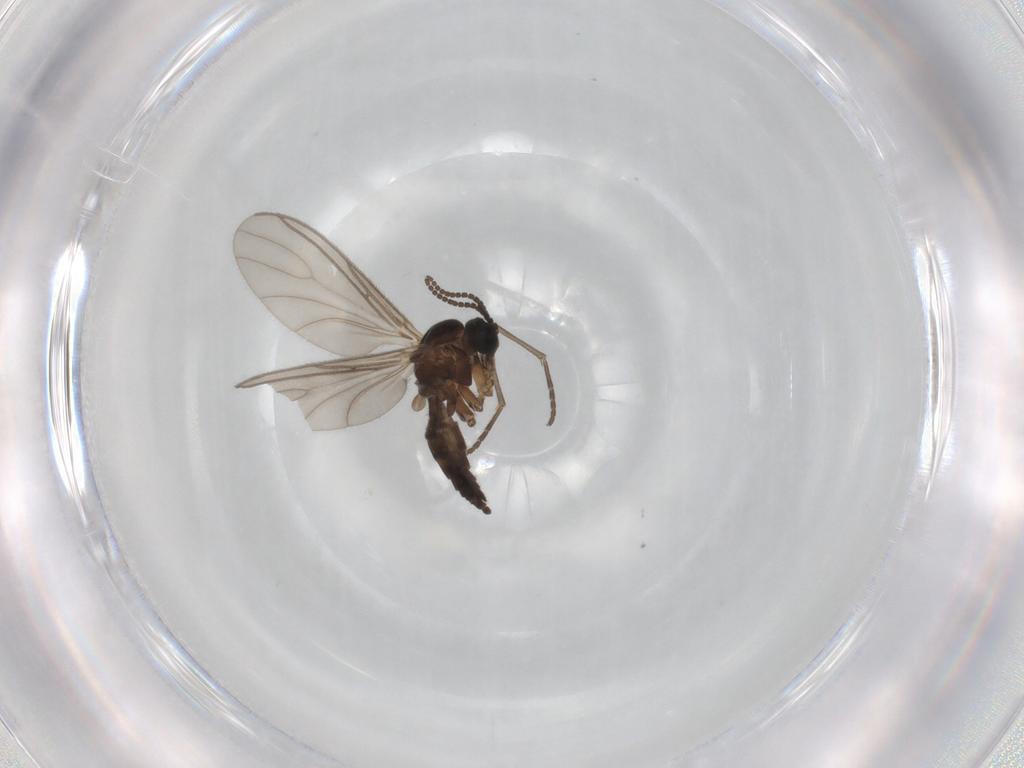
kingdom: Animalia
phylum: Arthropoda
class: Insecta
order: Diptera
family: Sciaridae
